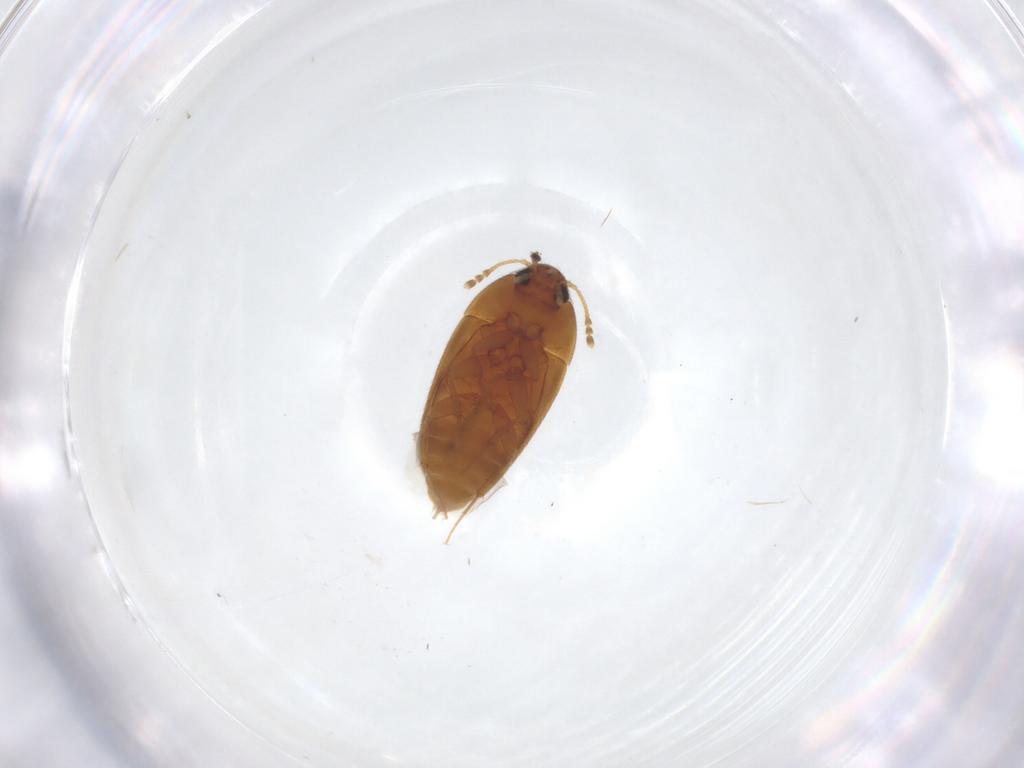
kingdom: Animalia
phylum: Arthropoda
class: Insecta
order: Coleoptera
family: Mycetophagidae
